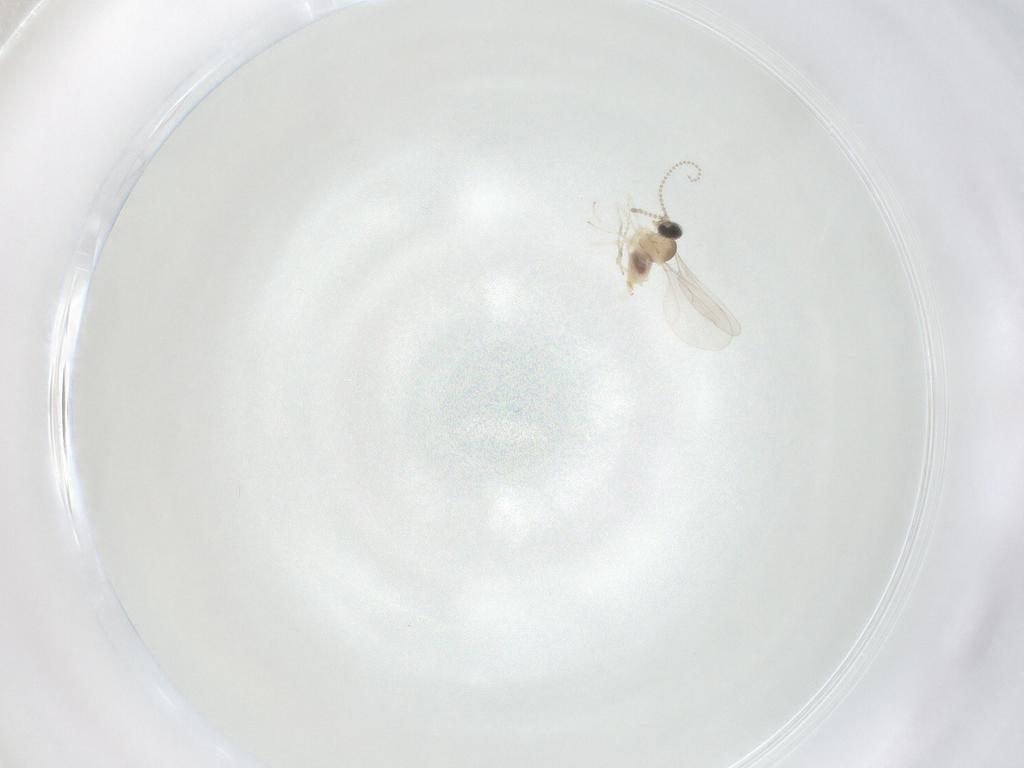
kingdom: Animalia
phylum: Arthropoda
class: Insecta
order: Diptera
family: Cecidomyiidae
